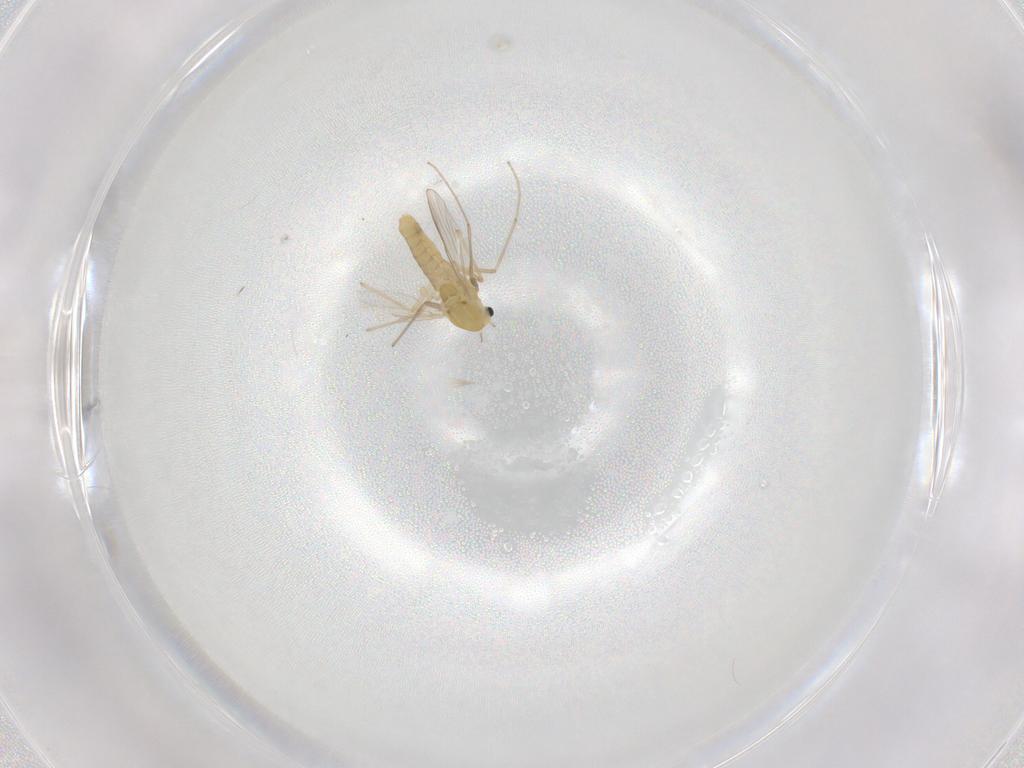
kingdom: Animalia
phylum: Arthropoda
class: Insecta
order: Diptera
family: Chironomidae
